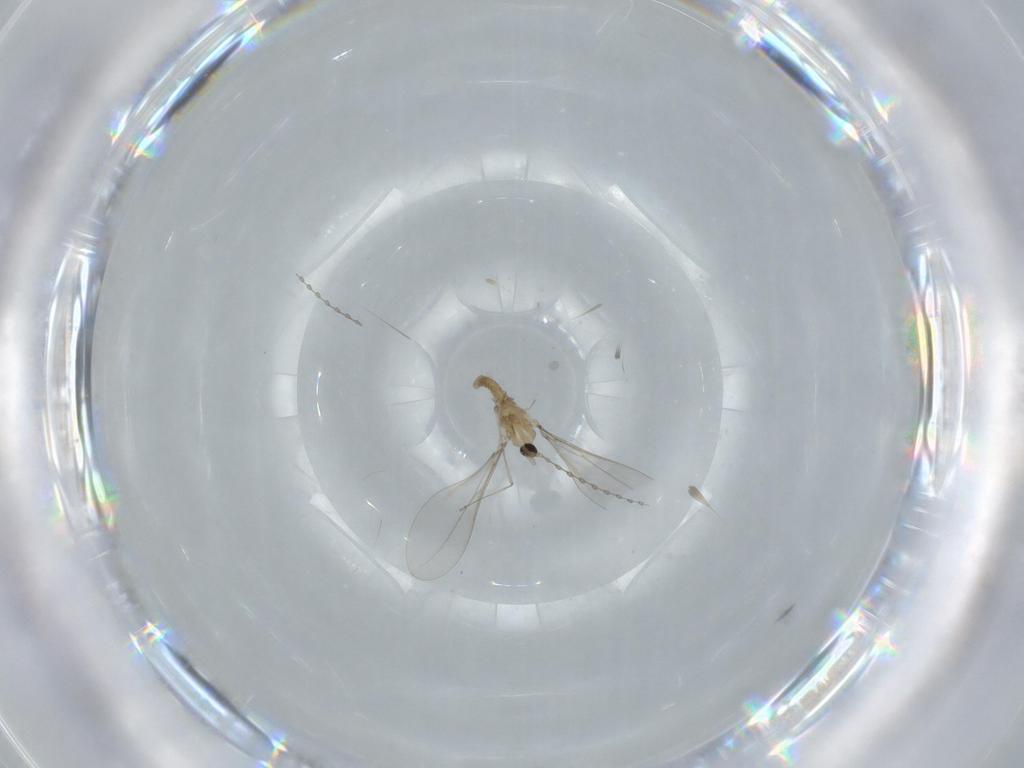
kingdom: Animalia
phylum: Arthropoda
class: Insecta
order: Diptera
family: Cecidomyiidae
